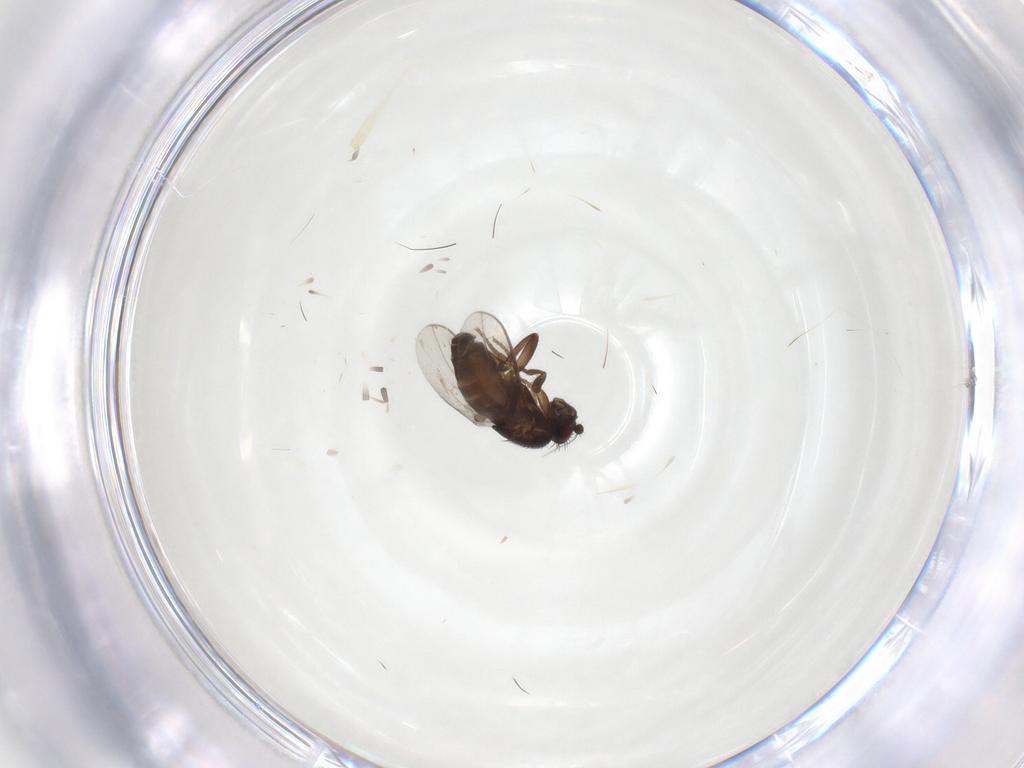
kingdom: Animalia
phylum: Arthropoda
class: Insecta
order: Diptera
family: Sphaeroceridae
